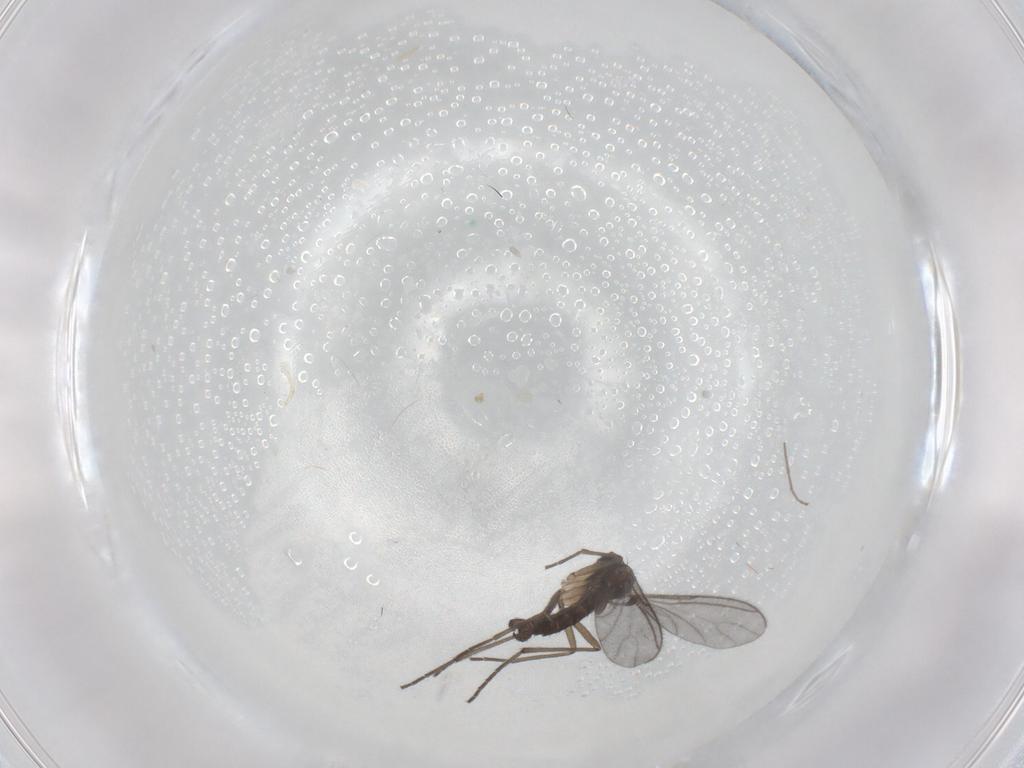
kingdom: Animalia
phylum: Arthropoda
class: Insecta
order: Diptera
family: Sciaridae
